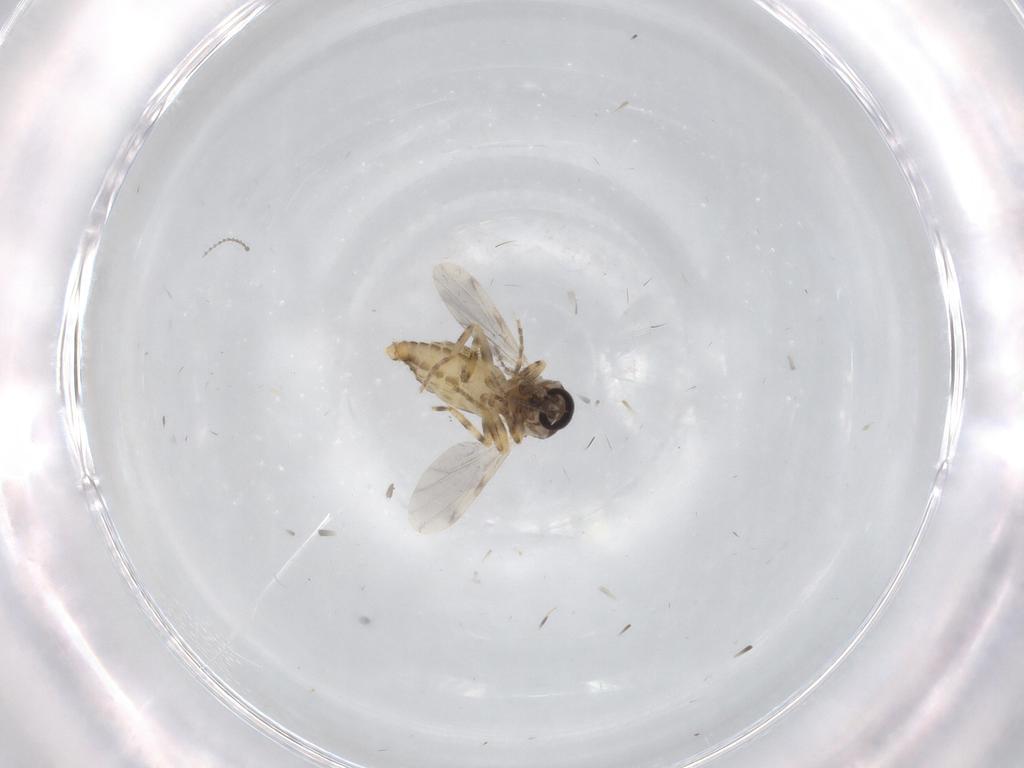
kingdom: Animalia
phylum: Arthropoda
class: Insecta
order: Diptera
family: Ceratopogonidae
